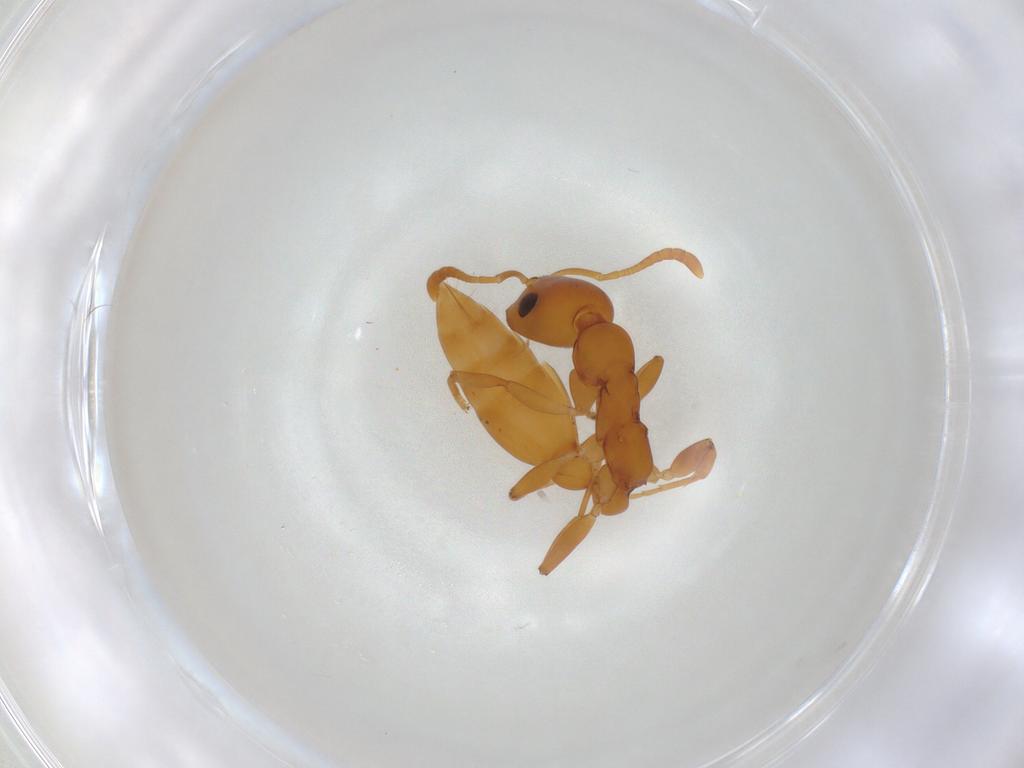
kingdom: Animalia
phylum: Arthropoda
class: Insecta
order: Hymenoptera
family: Formicidae
